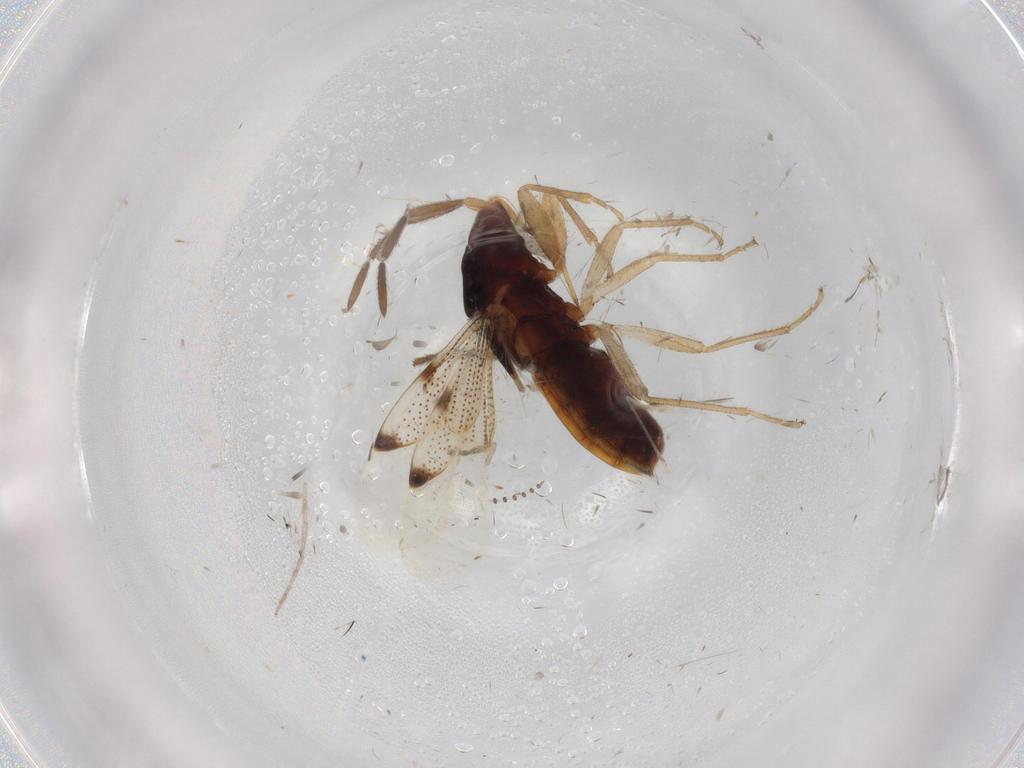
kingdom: Animalia
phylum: Arthropoda
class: Insecta
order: Hemiptera
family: Rhyparochromidae
